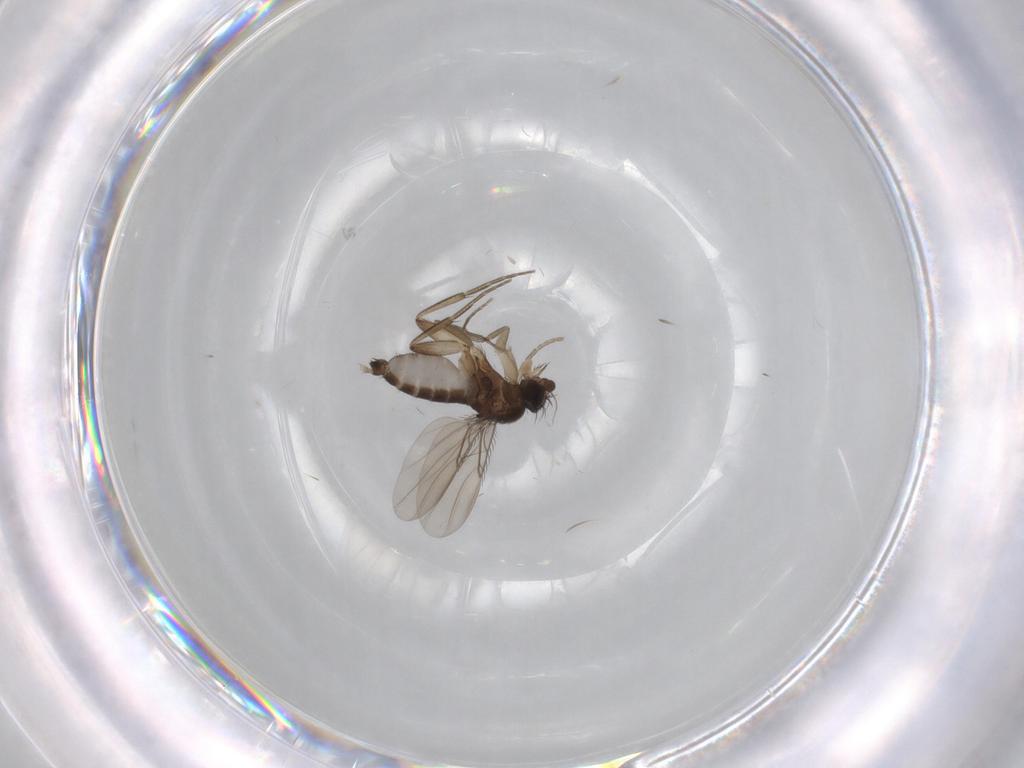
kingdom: Animalia
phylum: Arthropoda
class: Insecta
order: Diptera
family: Phoridae
